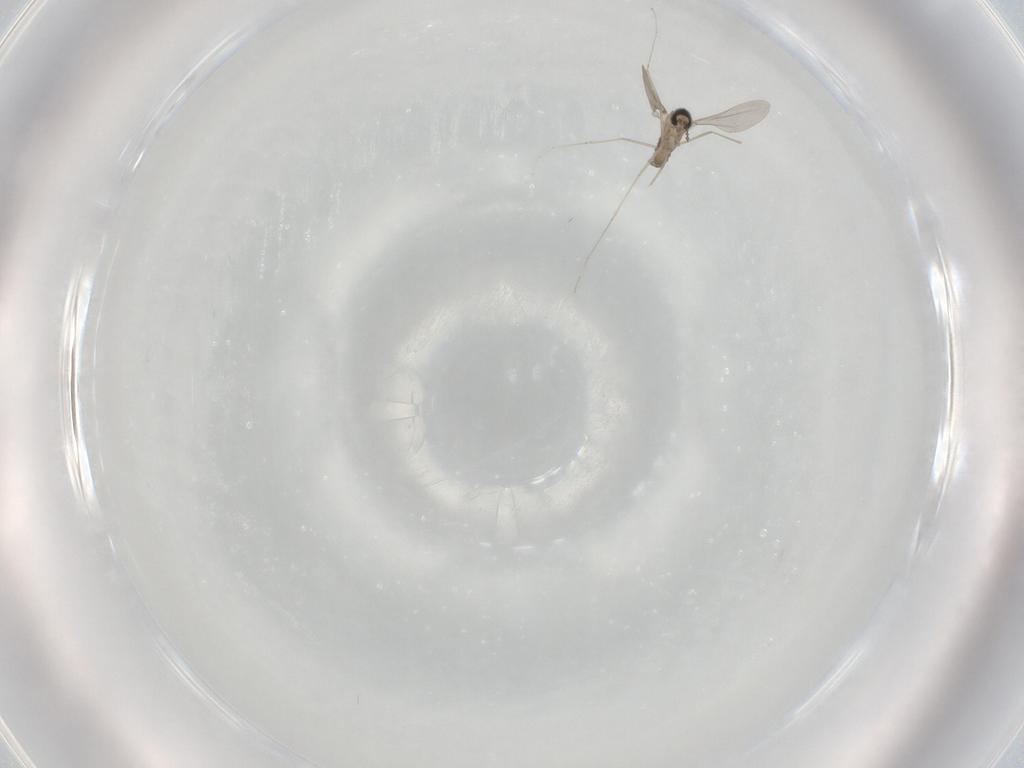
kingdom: Animalia
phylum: Arthropoda
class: Insecta
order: Diptera
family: Cecidomyiidae
